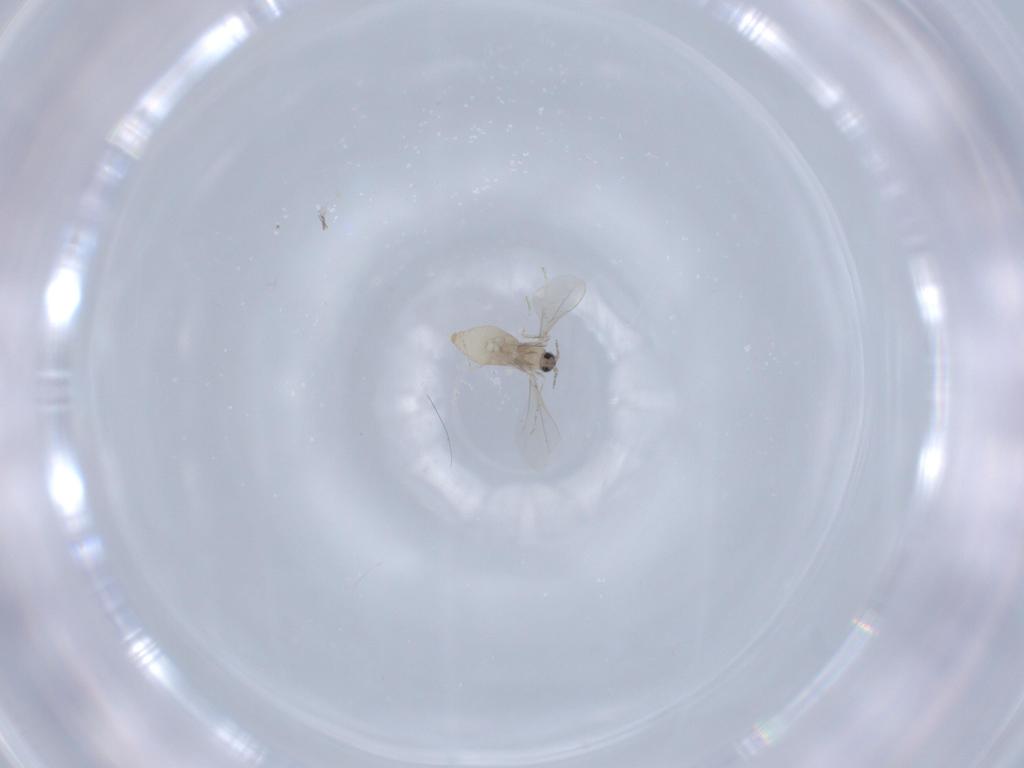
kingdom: Animalia
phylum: Arthropoda
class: Insecta
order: Diptera
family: Cecidomyiidae
